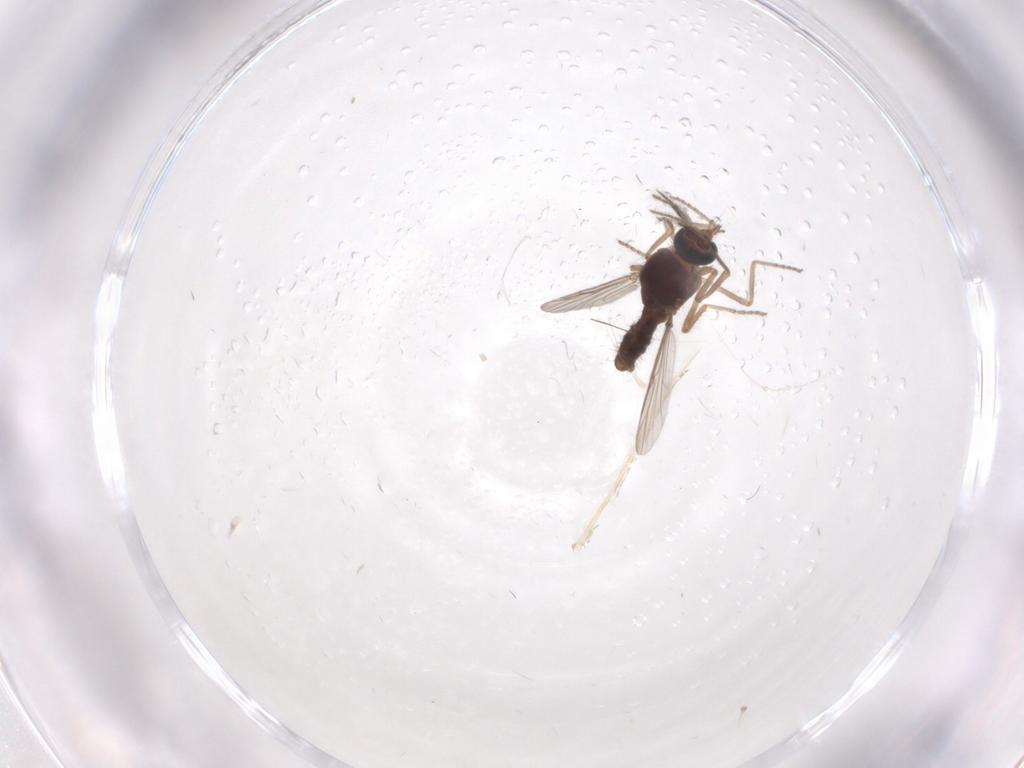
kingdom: Animalia
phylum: Arthropoda
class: Insecta
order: Diptera
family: Ceratopogonidae
